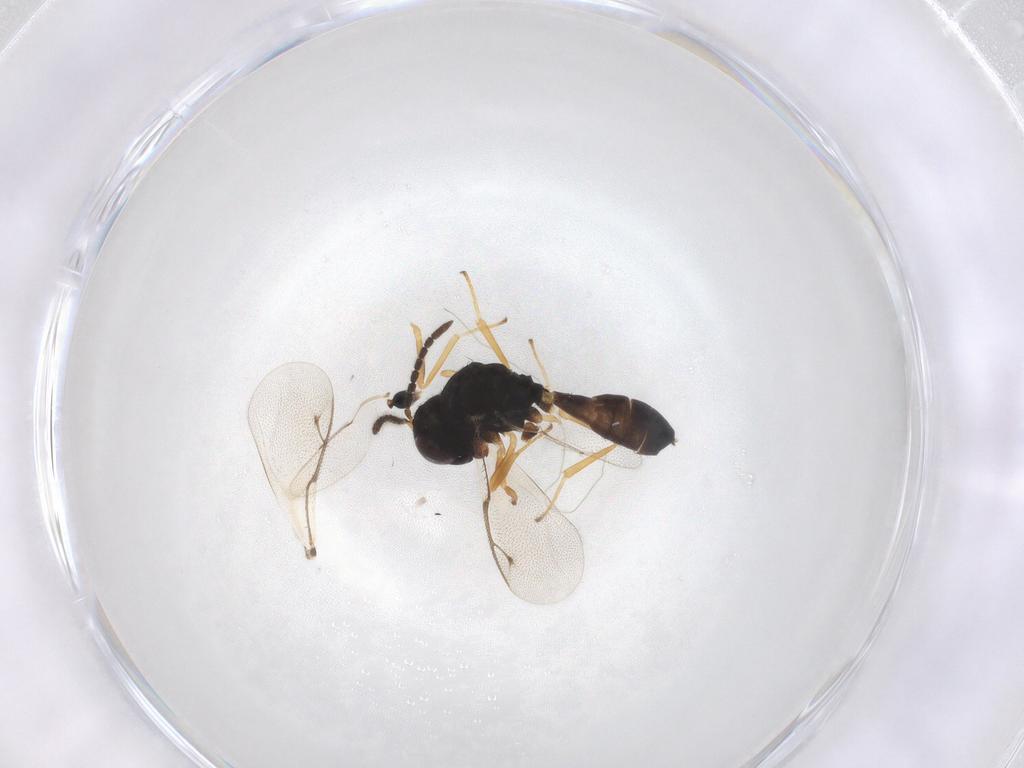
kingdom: Animalia
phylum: Arthropoda
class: Insecta
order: Hymenoptera
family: Pteromalidae
